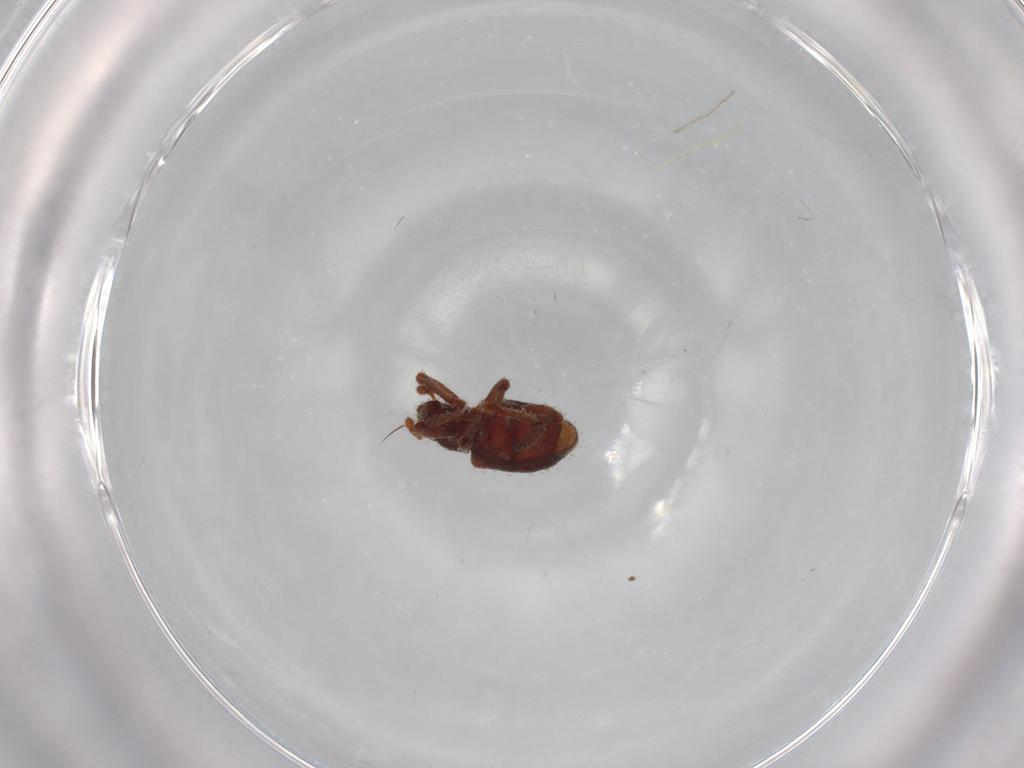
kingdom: Animalia
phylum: Arthropoda
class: Insecta
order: Coleoptera
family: Curculionidae
